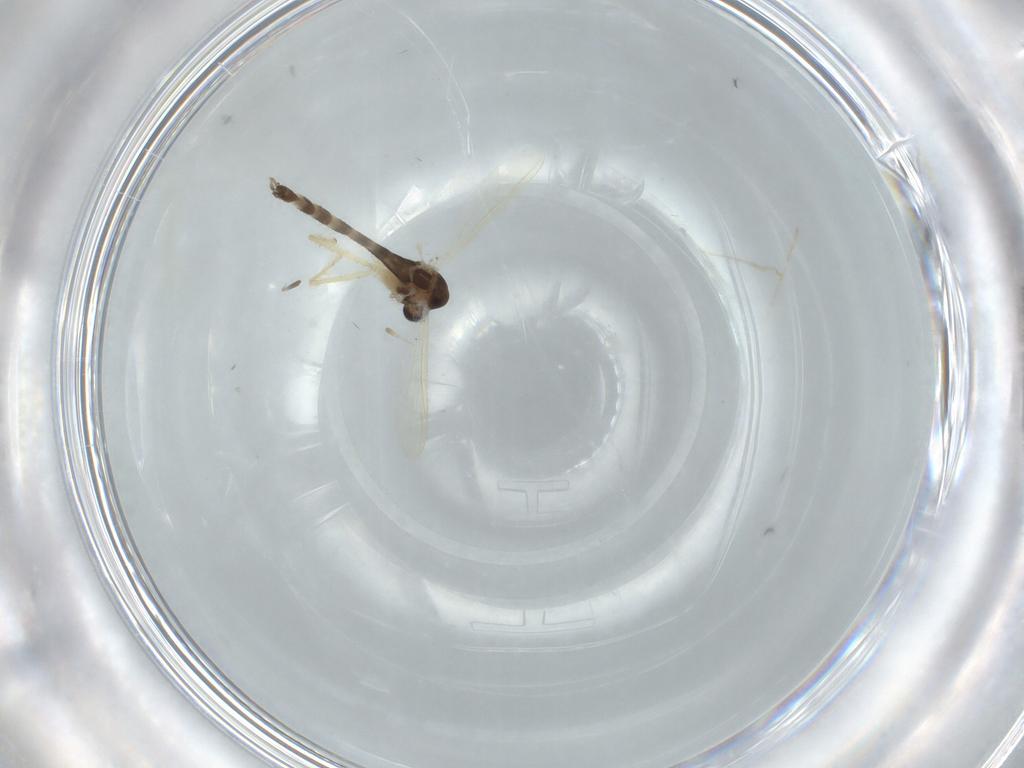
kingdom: Animalia
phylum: Arthropoda
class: Insecta
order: Diptera
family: Chironomidae
